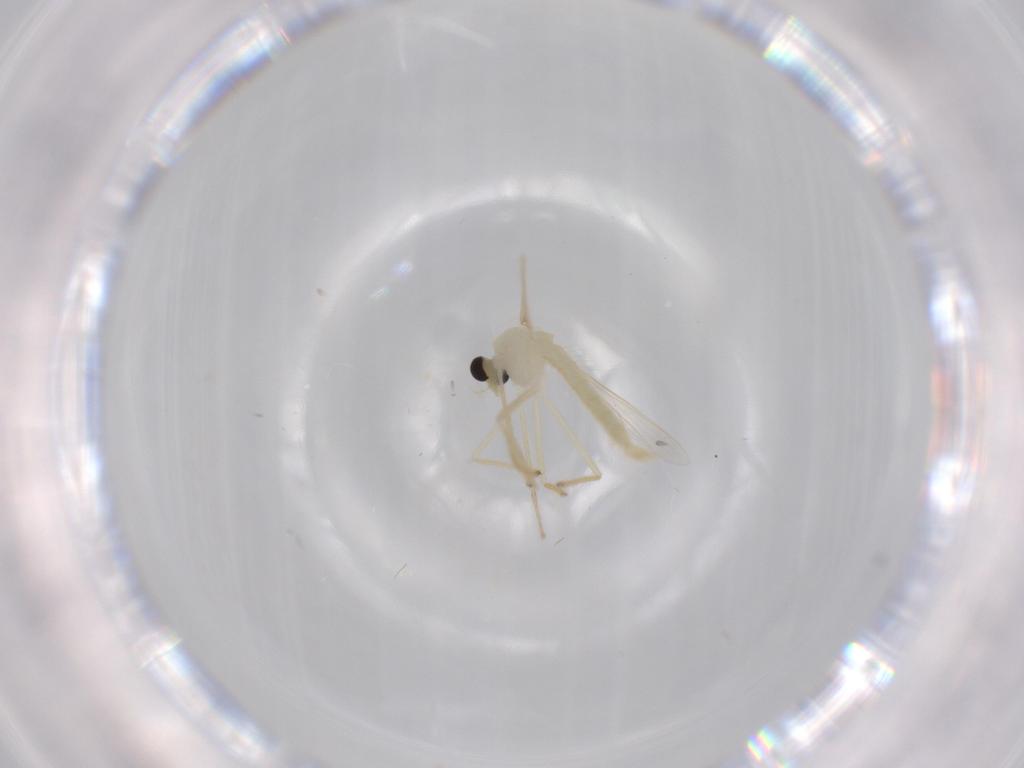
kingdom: Animalia
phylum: Arthropoda
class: Insecta
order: Diptera
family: Chironomidae
